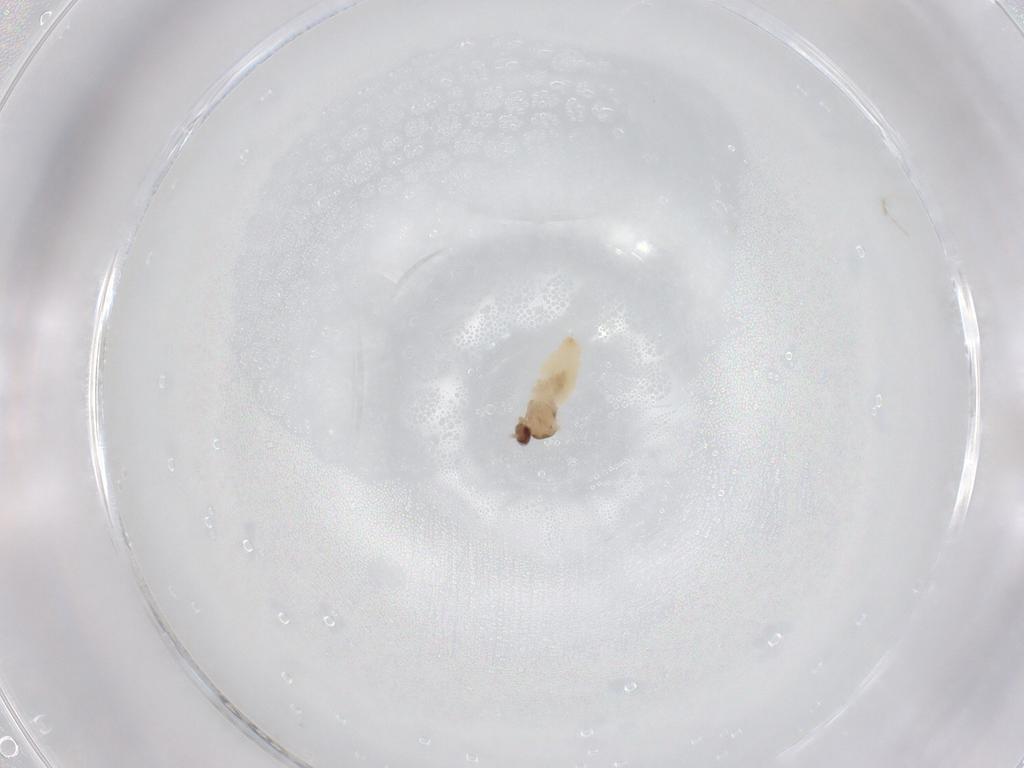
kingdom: Animalia
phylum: Arthropoda
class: Insecta
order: Diptera
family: Cecidomyiidae
